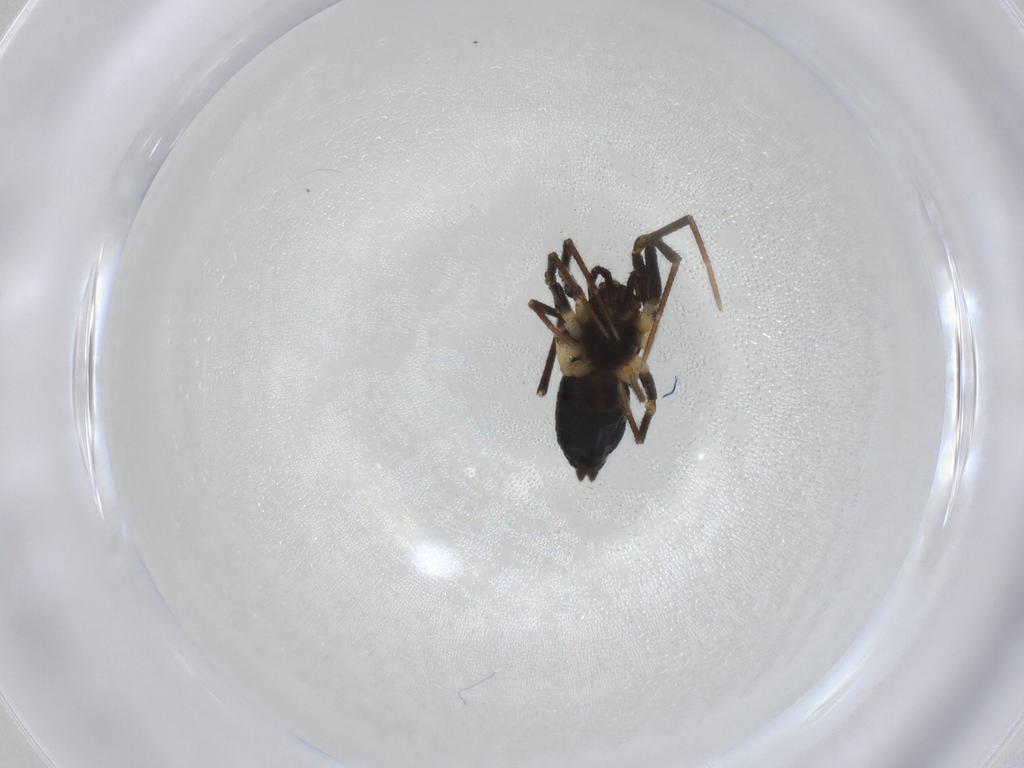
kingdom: Animalia
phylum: Arthropoda
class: Arachnida
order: Araneae
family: Linyphiidae
